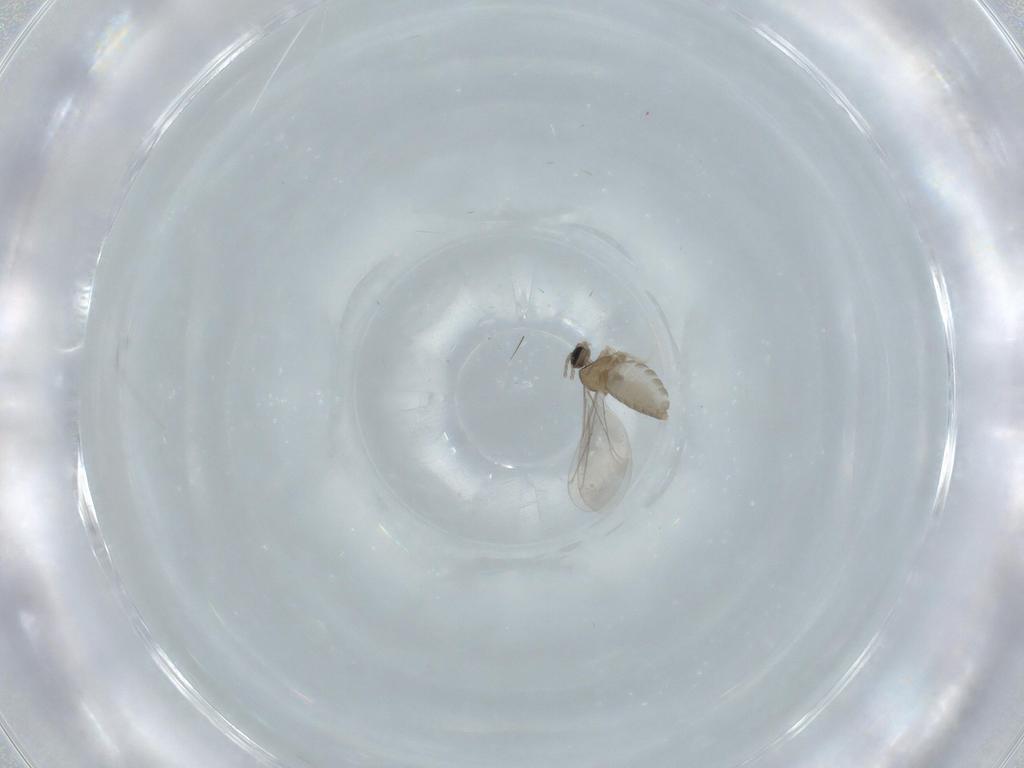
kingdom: Animalia
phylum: Arthropoda
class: Insecta
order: Diptera
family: Cecidomyiidae
